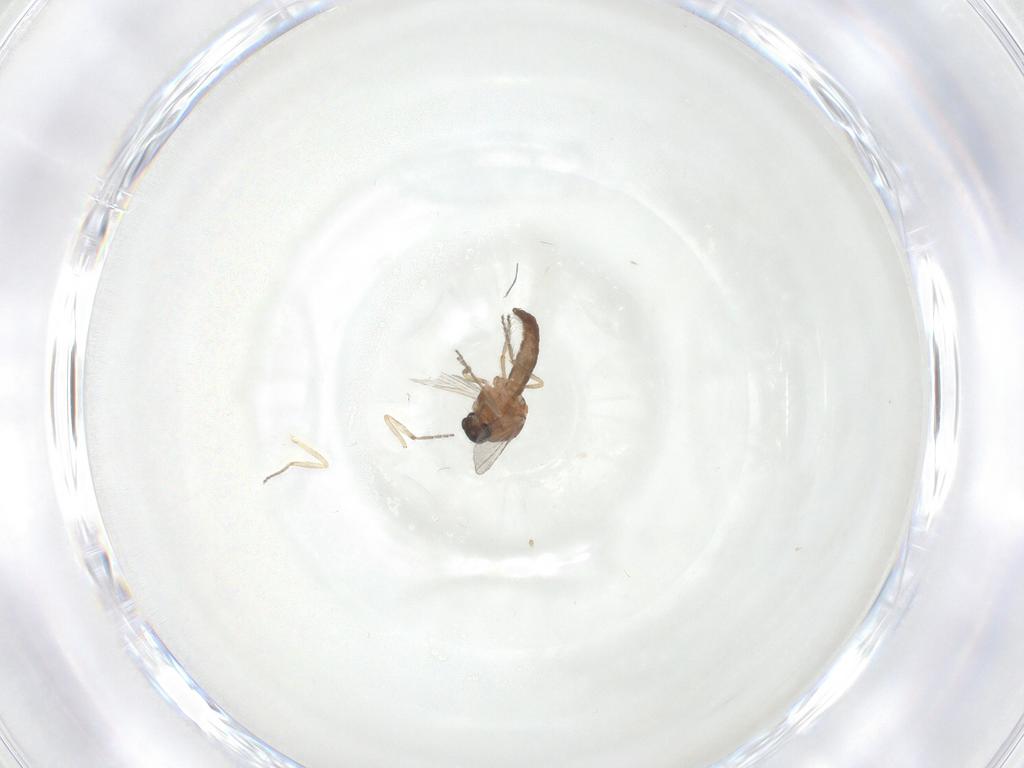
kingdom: Animalia
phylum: Arthropoda
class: Insecta
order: Diptera
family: Ceratopogonidae
